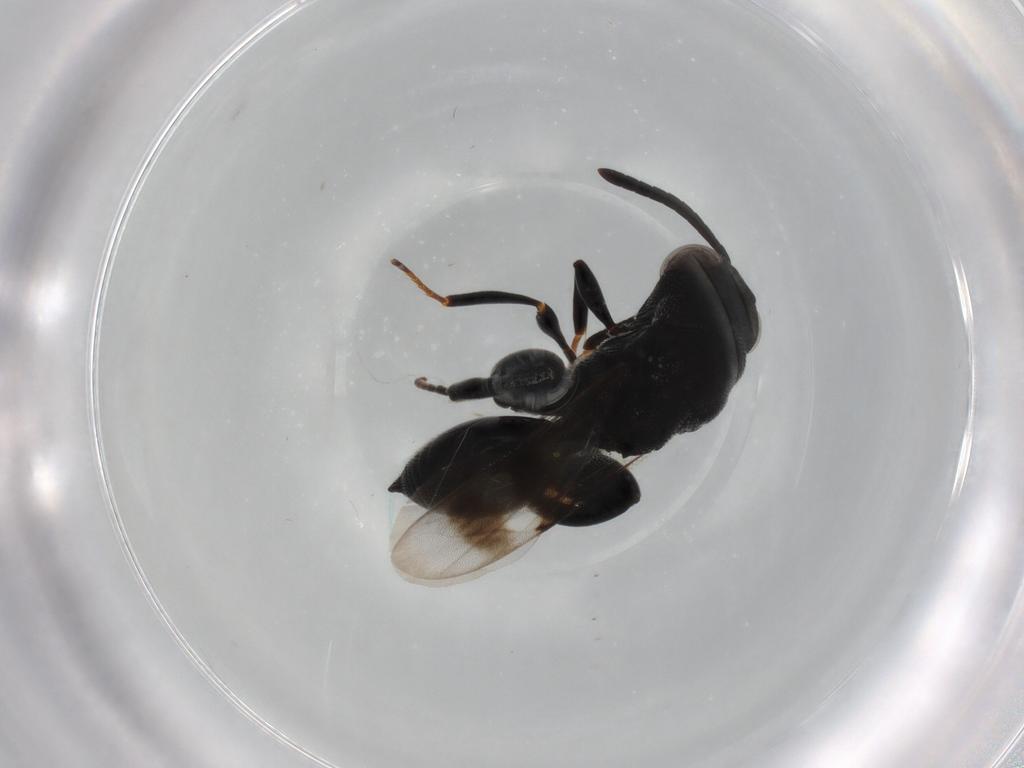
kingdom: Animalia
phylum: Arthropoda
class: Insecta
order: Hymenoptera
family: Chalcididae
